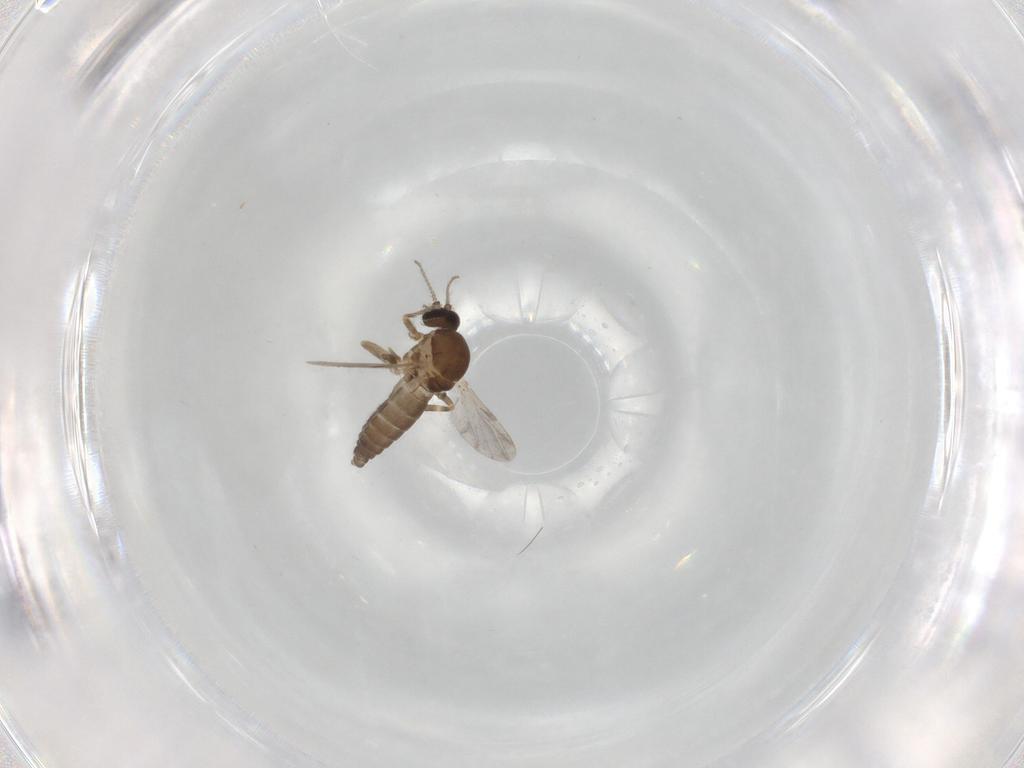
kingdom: Animalia
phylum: Arthropoda
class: Insecta
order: Diptera
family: Ceratopogonidae
